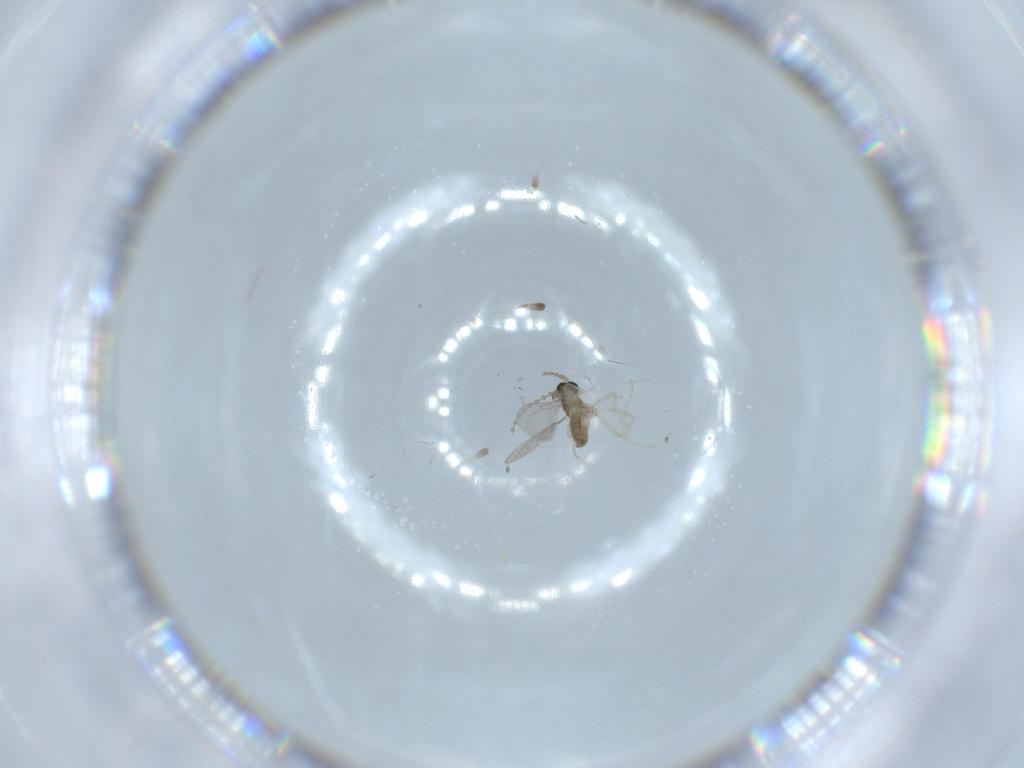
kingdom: Animalia
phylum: Arthropoda
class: Insecta
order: Diptera
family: Cecidomyiidae
